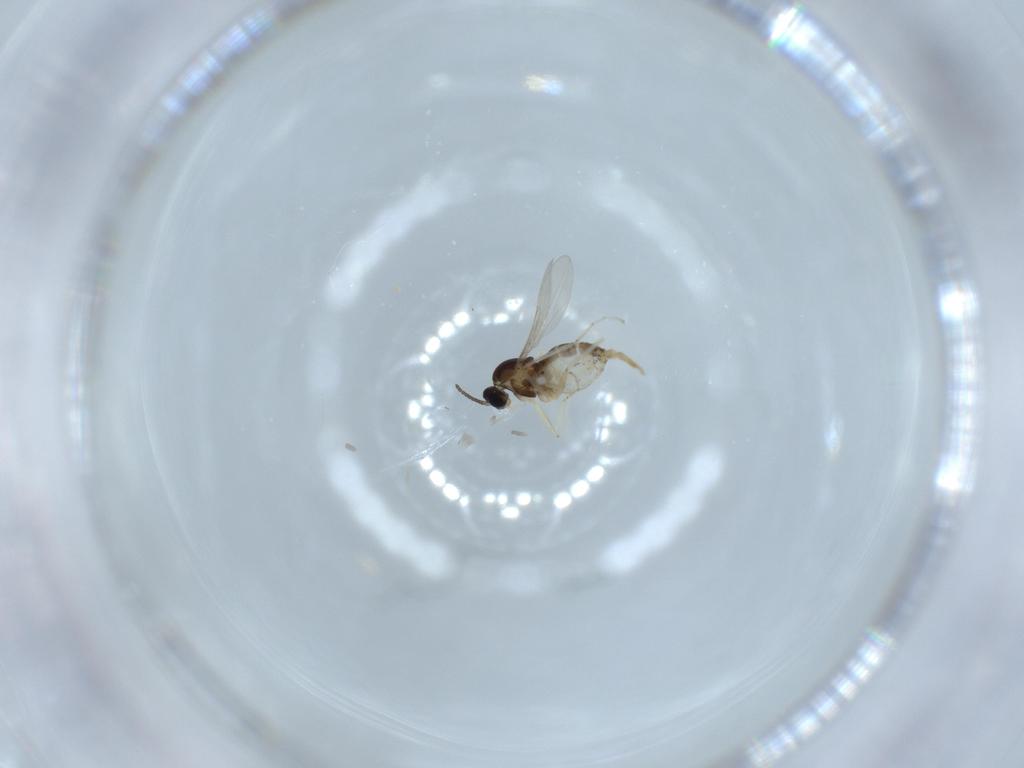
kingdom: Animalia
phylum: Arthropoda
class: Insecta
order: Diptera
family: Cecidomyiidae
